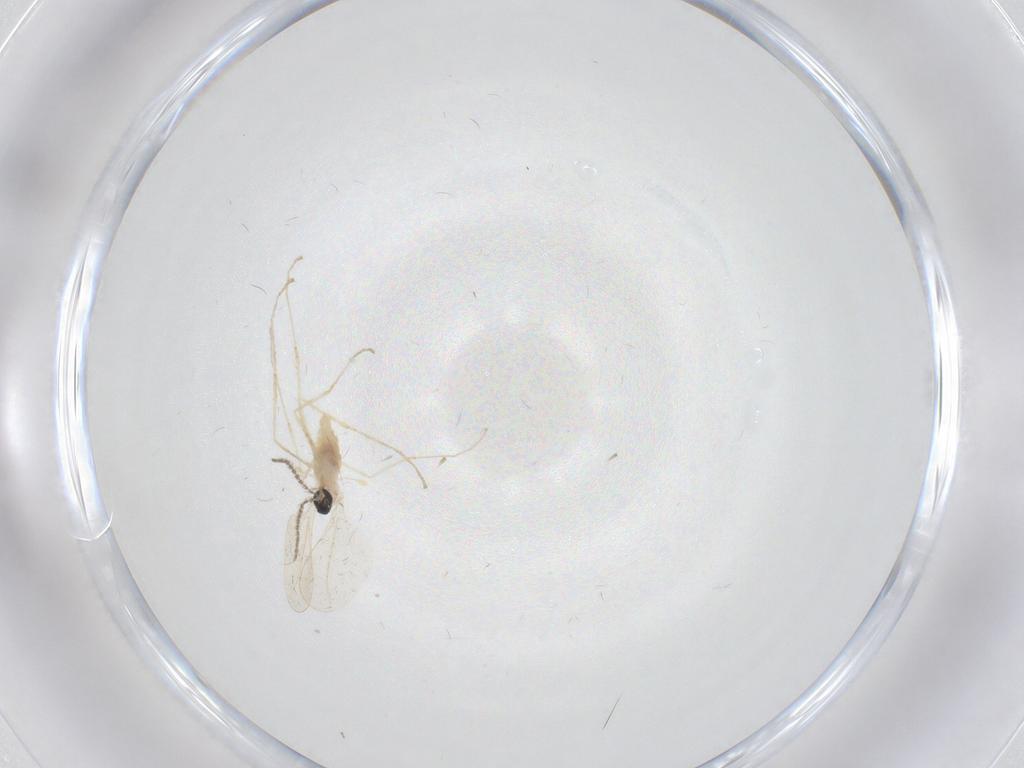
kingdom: Animalia
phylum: Arthropoda
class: Insecta
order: Diptera
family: Cecidomyiidae
